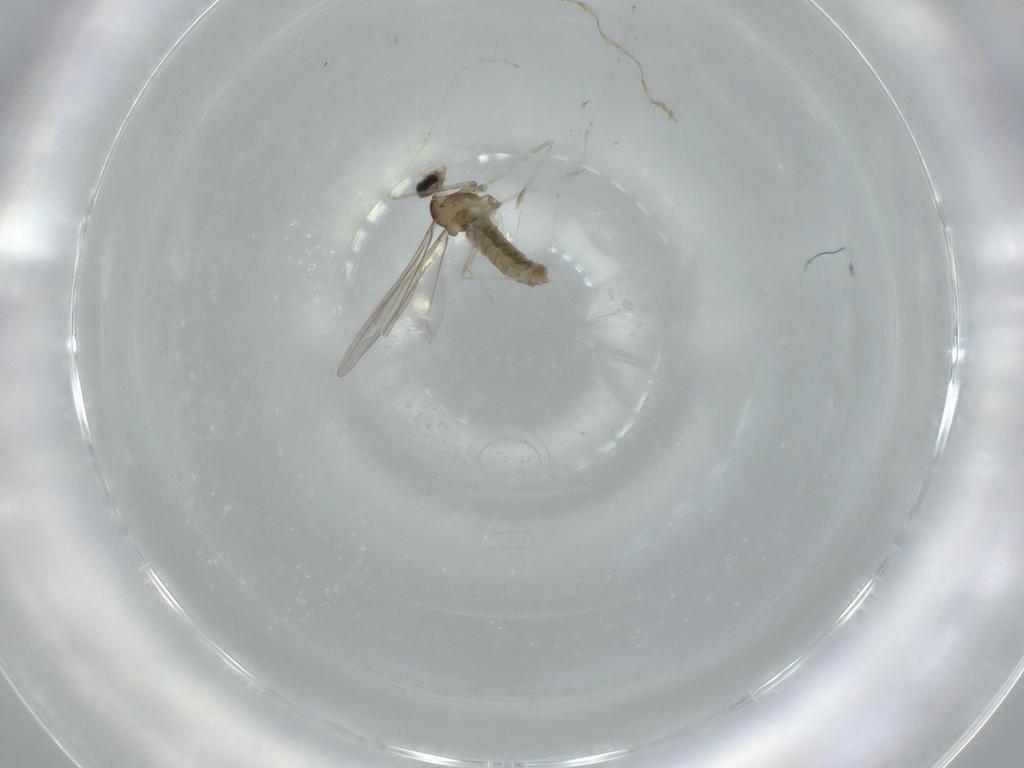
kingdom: Animalia
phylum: Arthropoda
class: Insecta
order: Diptera
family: Cecidomyiidae
